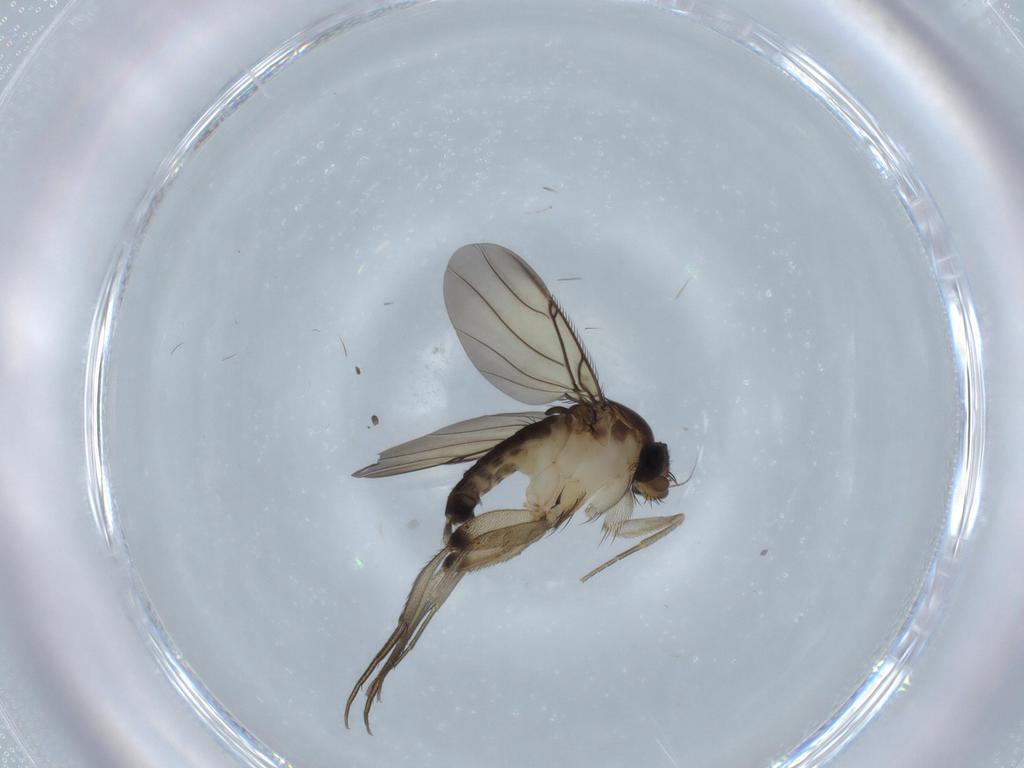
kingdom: Animalia
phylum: Arthropoda
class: Insecta
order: Diptera
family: Phoridae
